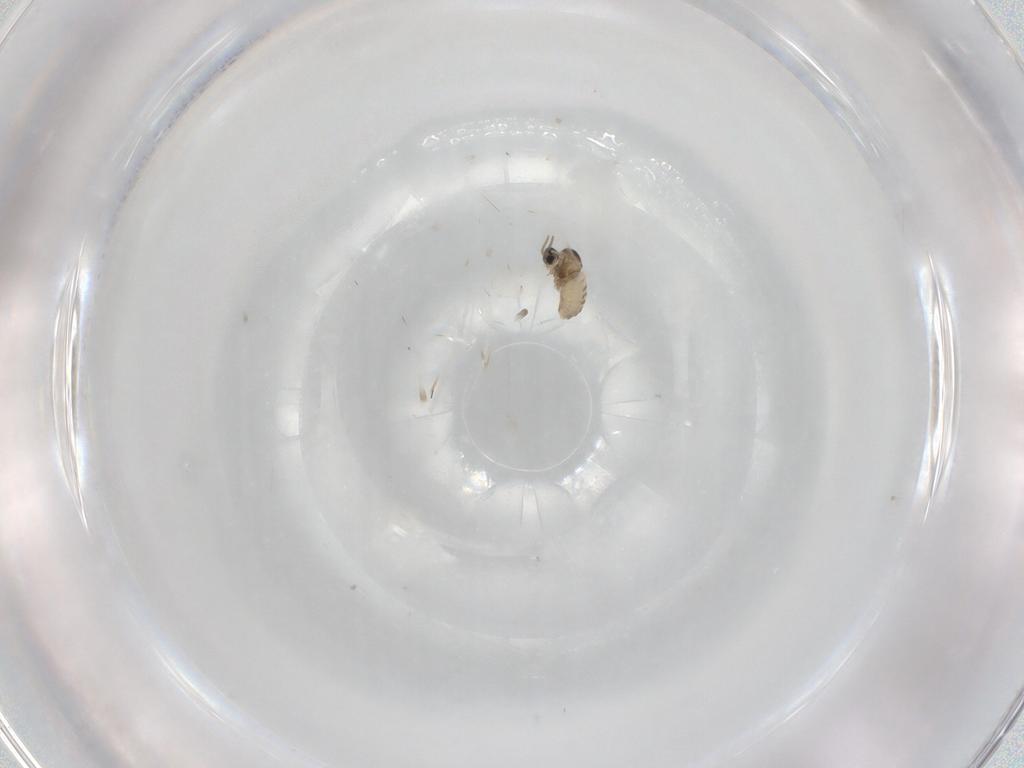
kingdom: Animalia
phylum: Arthropoda
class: Insecta
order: Diptera
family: Cecidomyiidae
